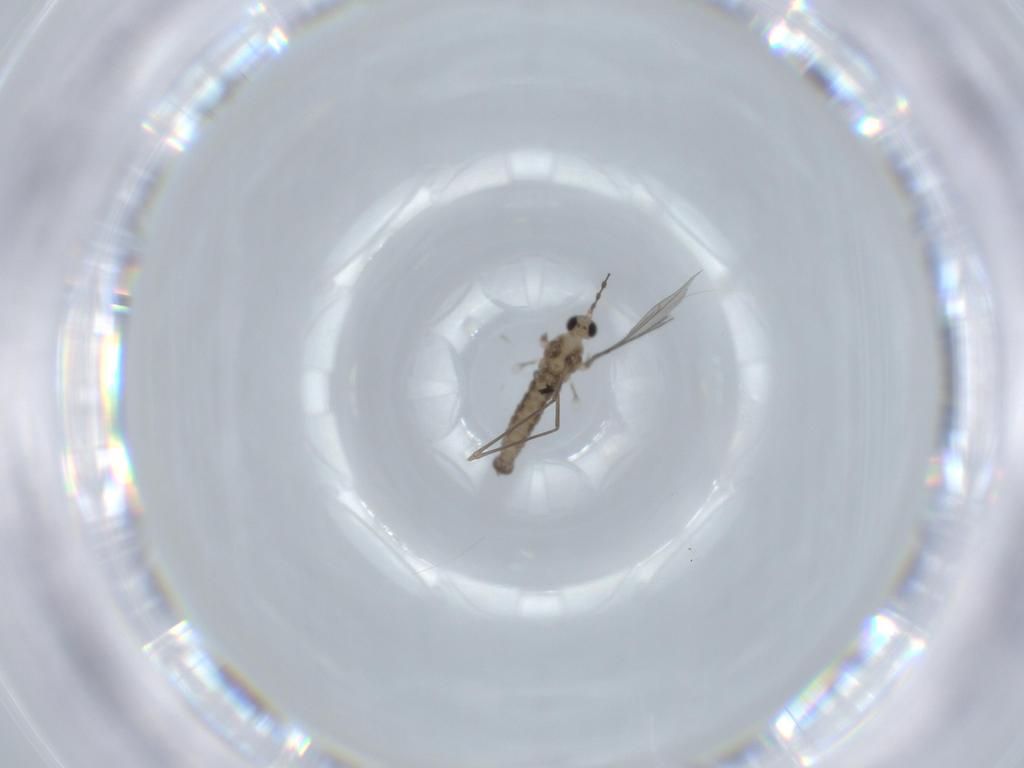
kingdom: Animalia
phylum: Arthropoda
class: Insecta
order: Diptera
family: Cecidomyiidae
